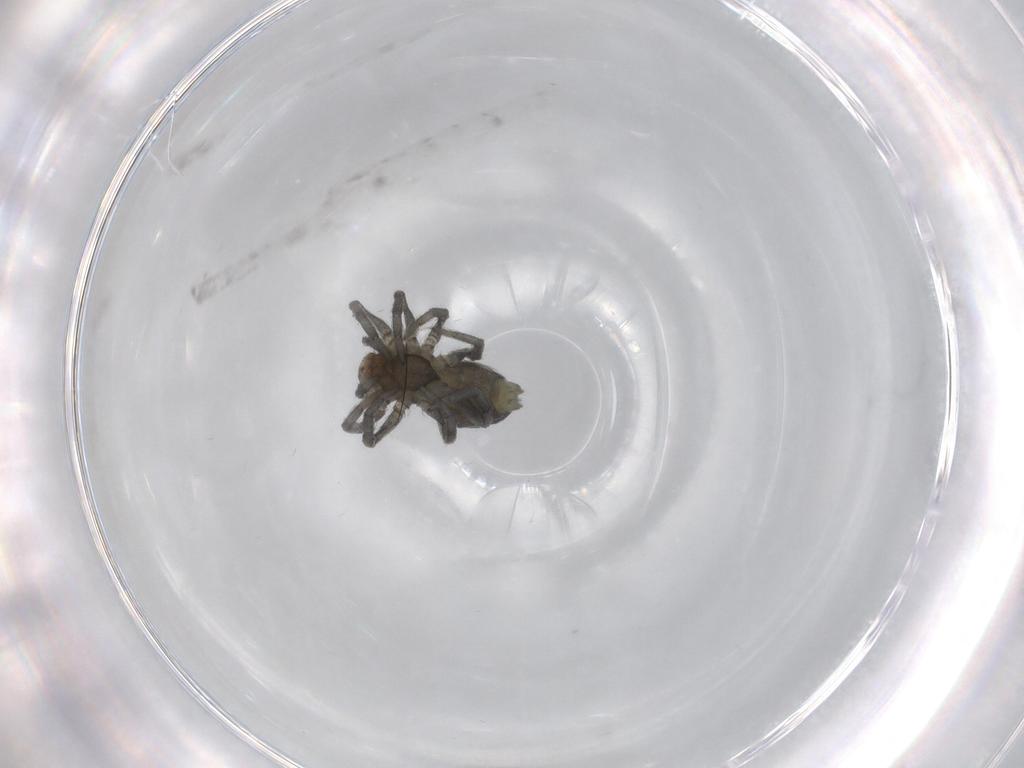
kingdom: Animalia
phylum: Arthropoda
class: Arachnida
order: Araneae
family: Dictynidae
